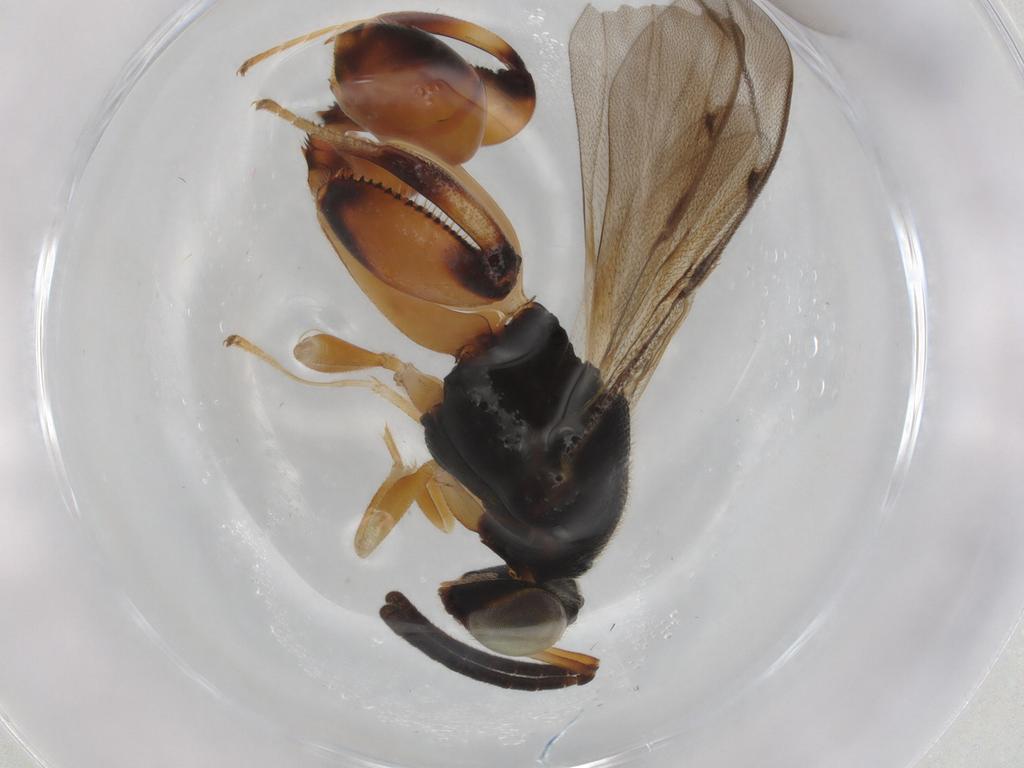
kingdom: Animalia
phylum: Arthropoda
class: Insecta
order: Hymenoptera
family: Chalcididae
